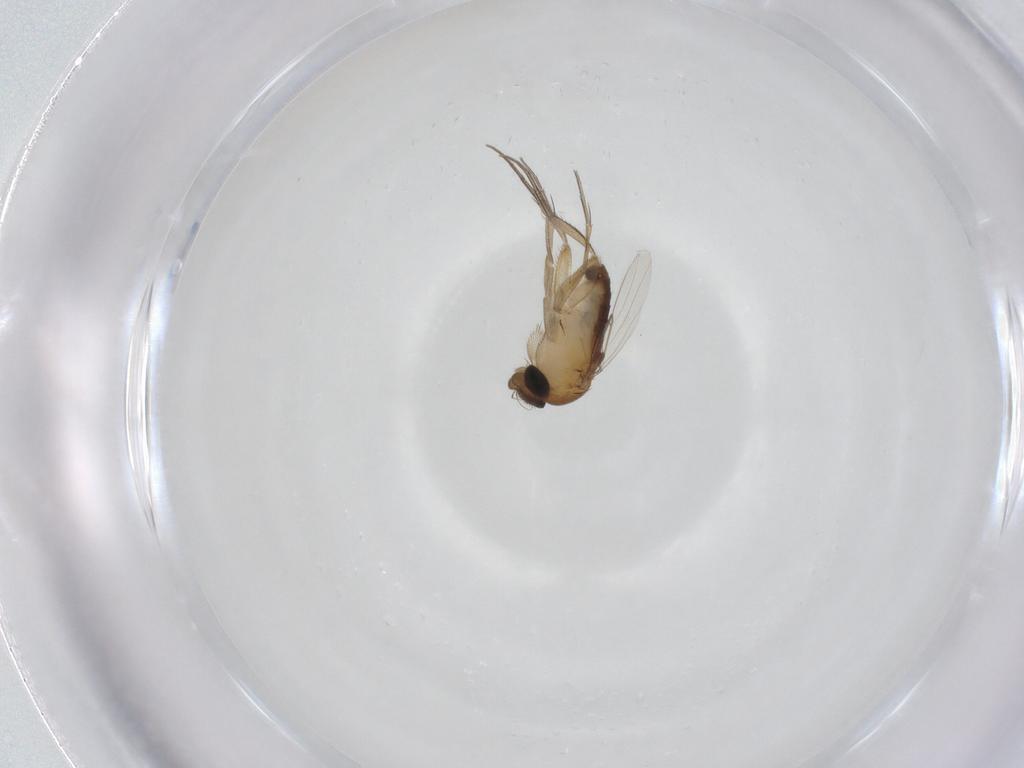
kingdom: Animalia
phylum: Arthropoda
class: Insecta
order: Diptera
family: Phoridae
